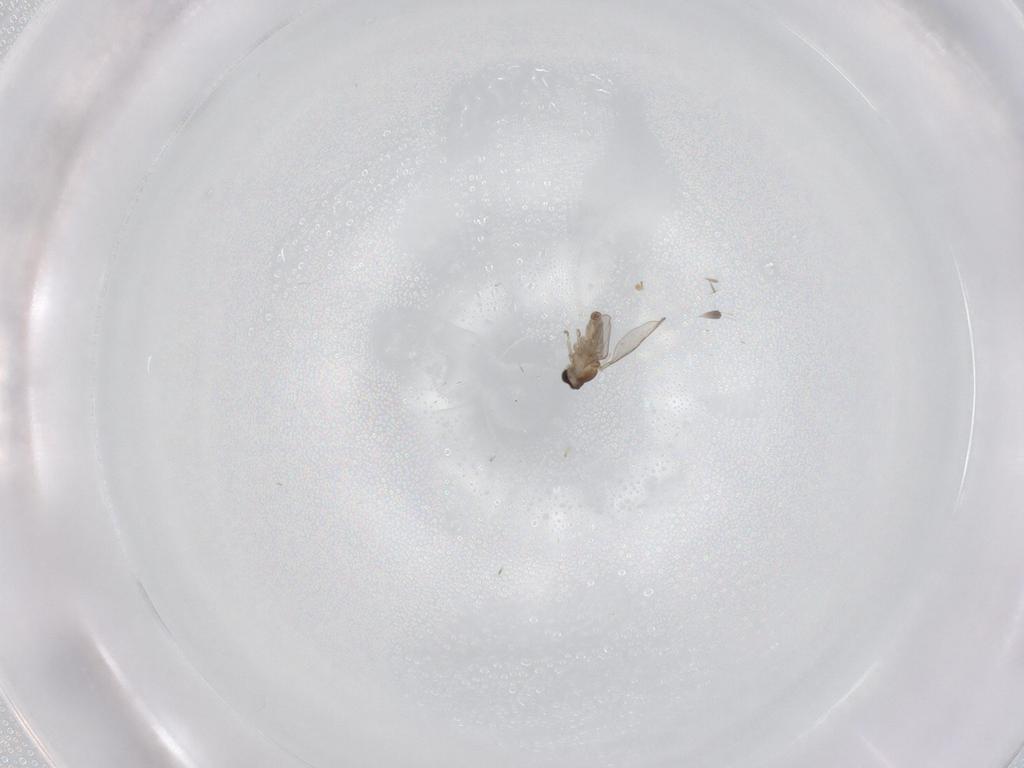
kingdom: Animalia
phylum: Arthropoda
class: Insecta
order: Diptera
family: Cecidomyiidae
